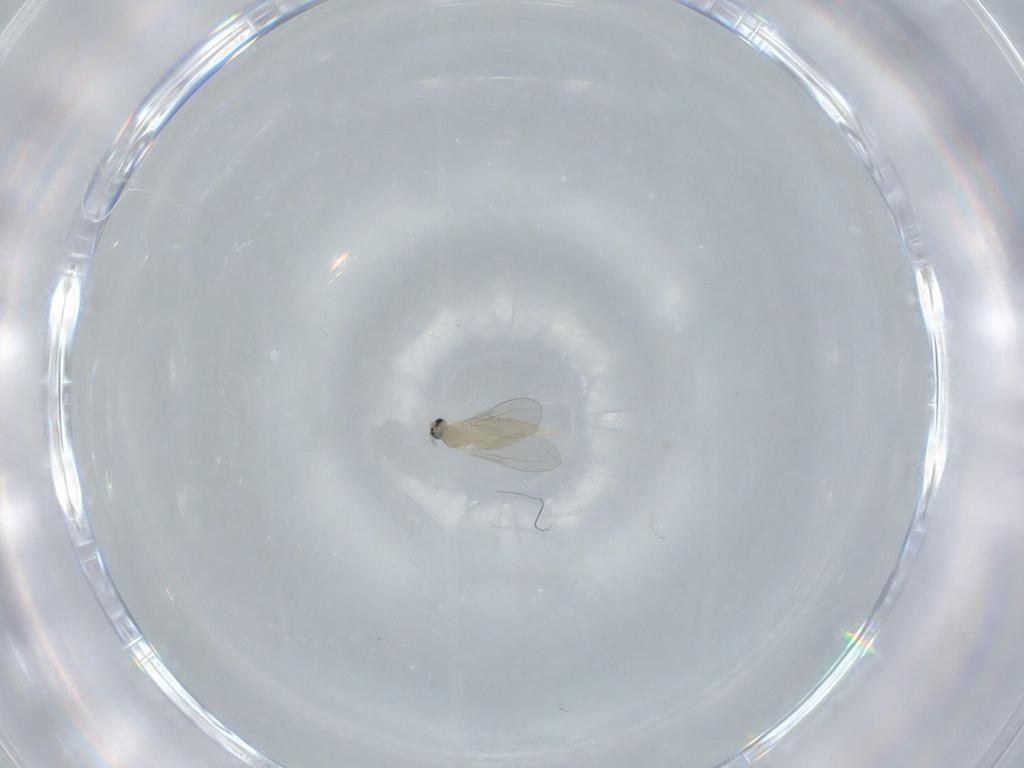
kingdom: Animalia
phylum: Arthropoda
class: Insecta
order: Diptera
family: Cecidomyiidae
